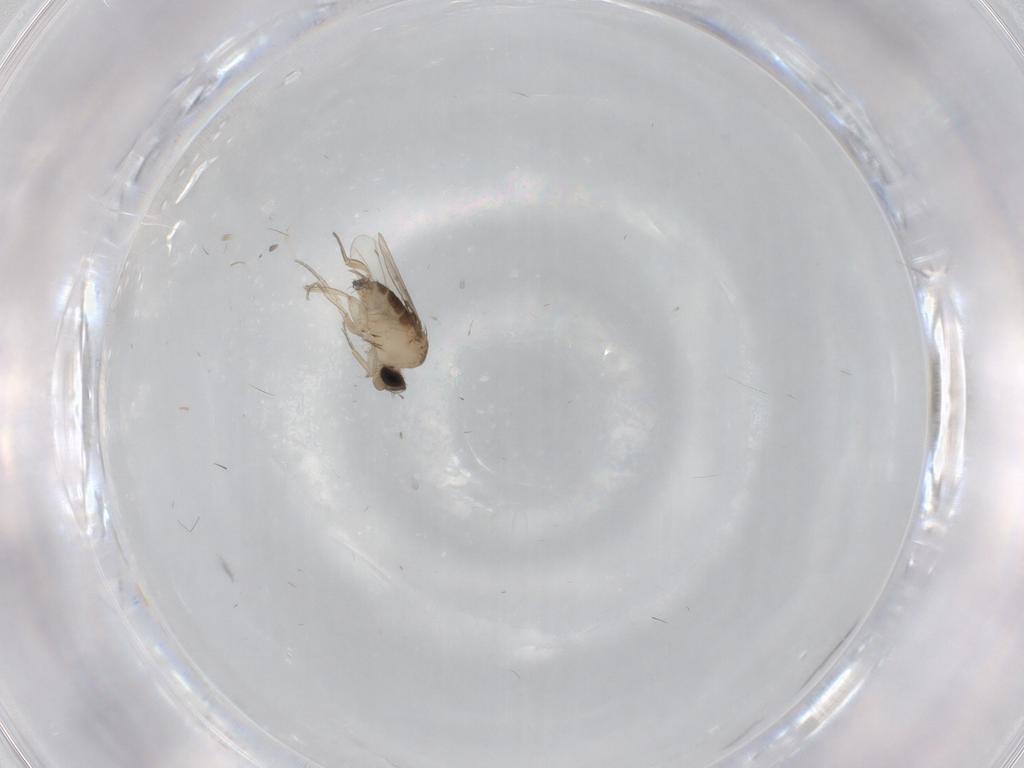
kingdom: Animalia
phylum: Arthropoda
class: Insecta
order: Diptera
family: Phoridae
